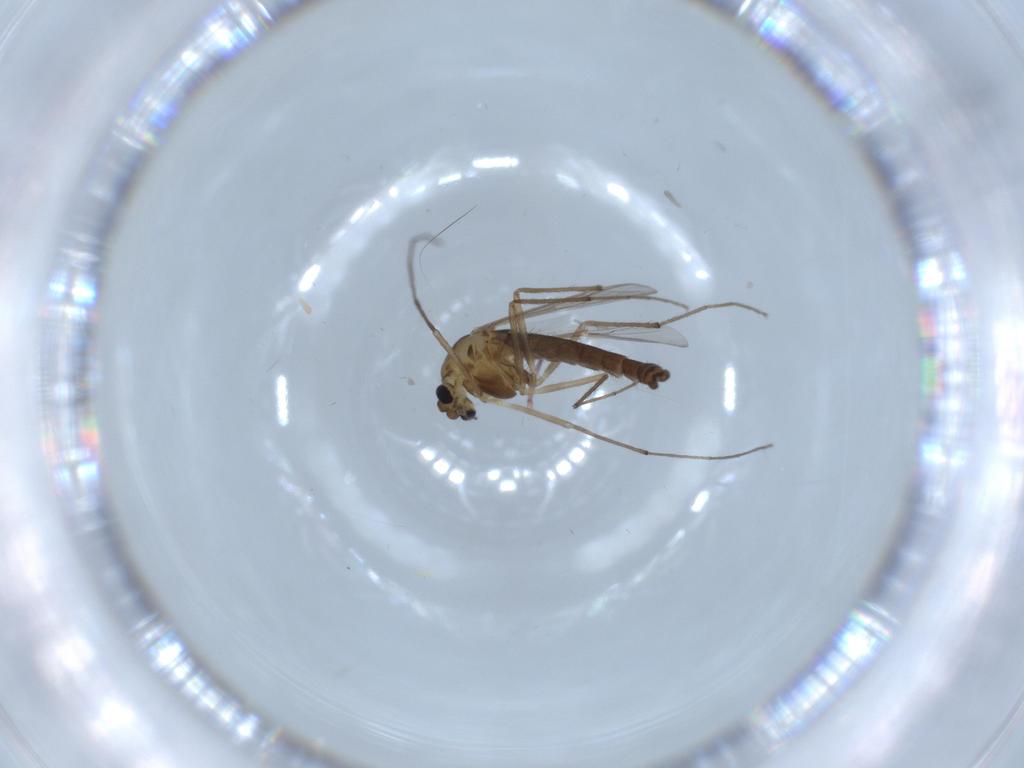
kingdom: Animalia
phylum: Arthropoda
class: Insecta
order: Diptera
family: Chironomidae
